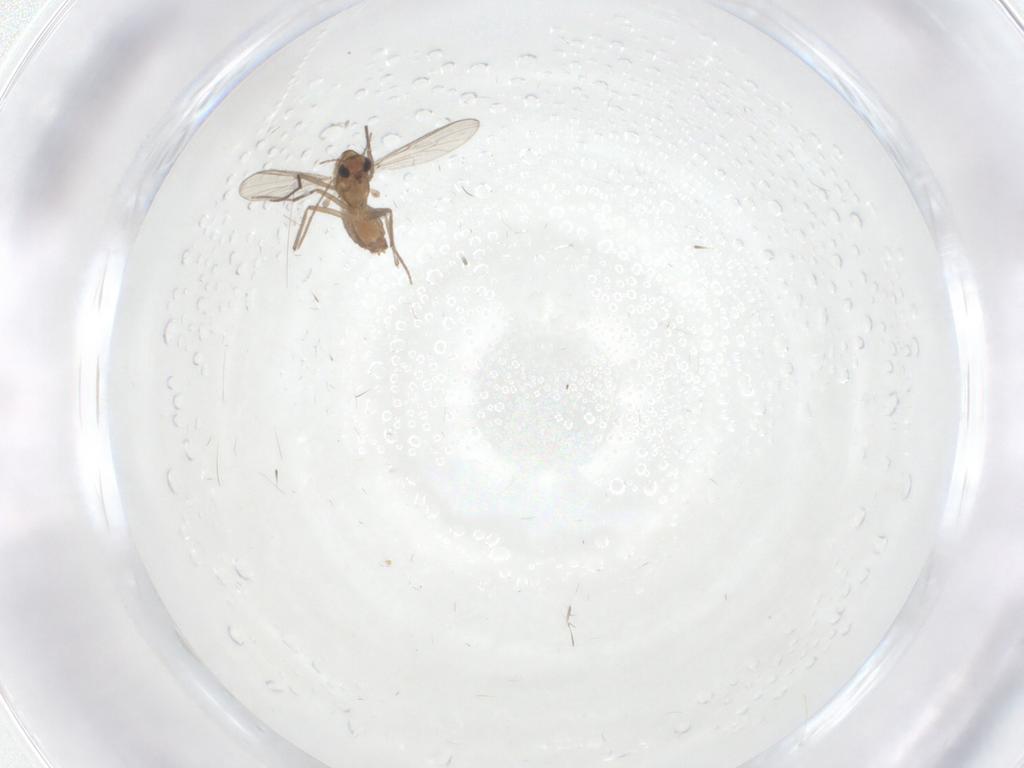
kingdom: Animalia
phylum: Arthropoda
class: Insecta
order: Diptera
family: Chironomidae
